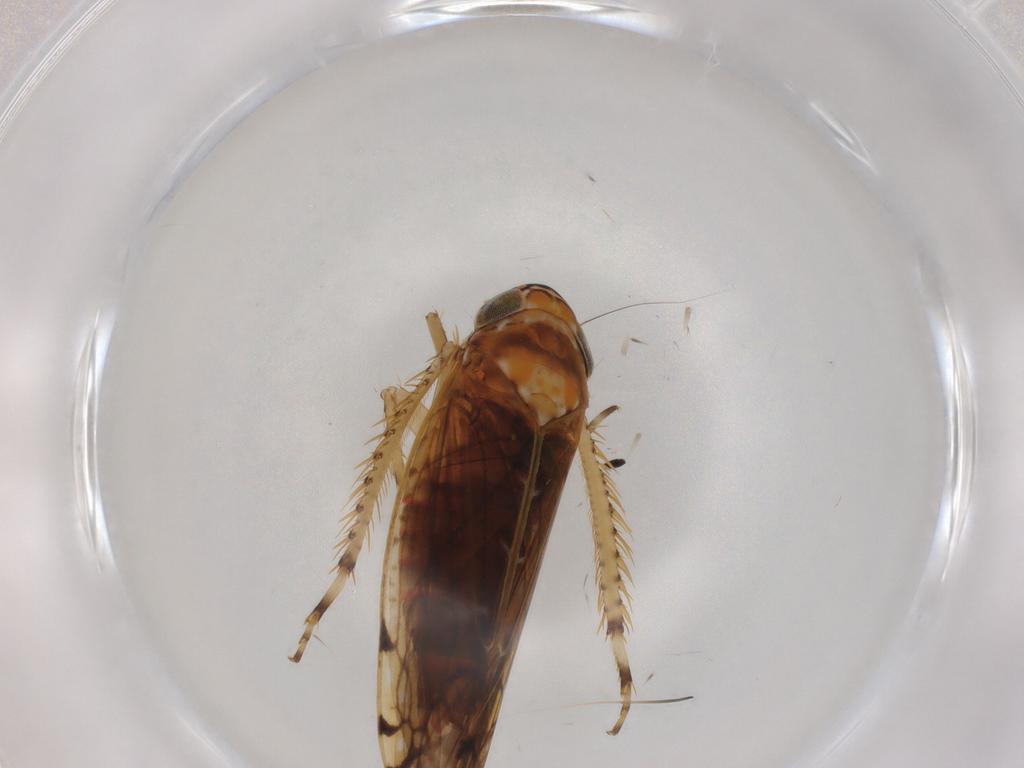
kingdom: Animalia
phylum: Arthropoda
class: Insecta
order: Hemiptera
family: Cicadellidae
